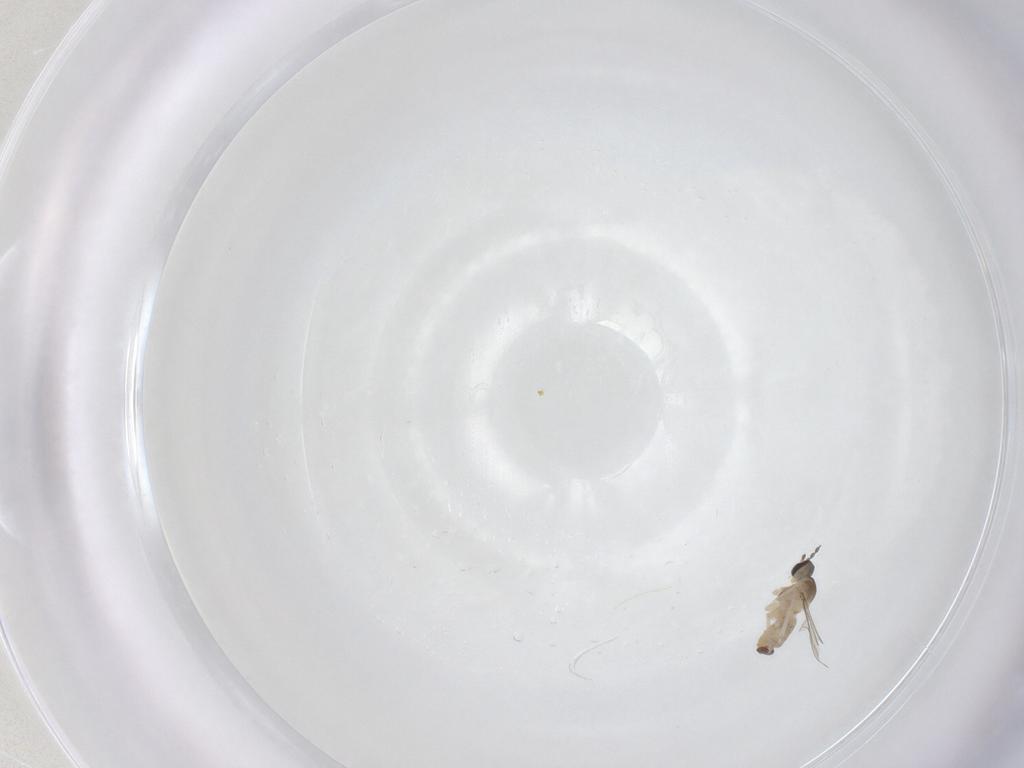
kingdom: Animalia
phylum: Arthropoda
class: Insecta
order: Diptera
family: Cecidomyiidae
